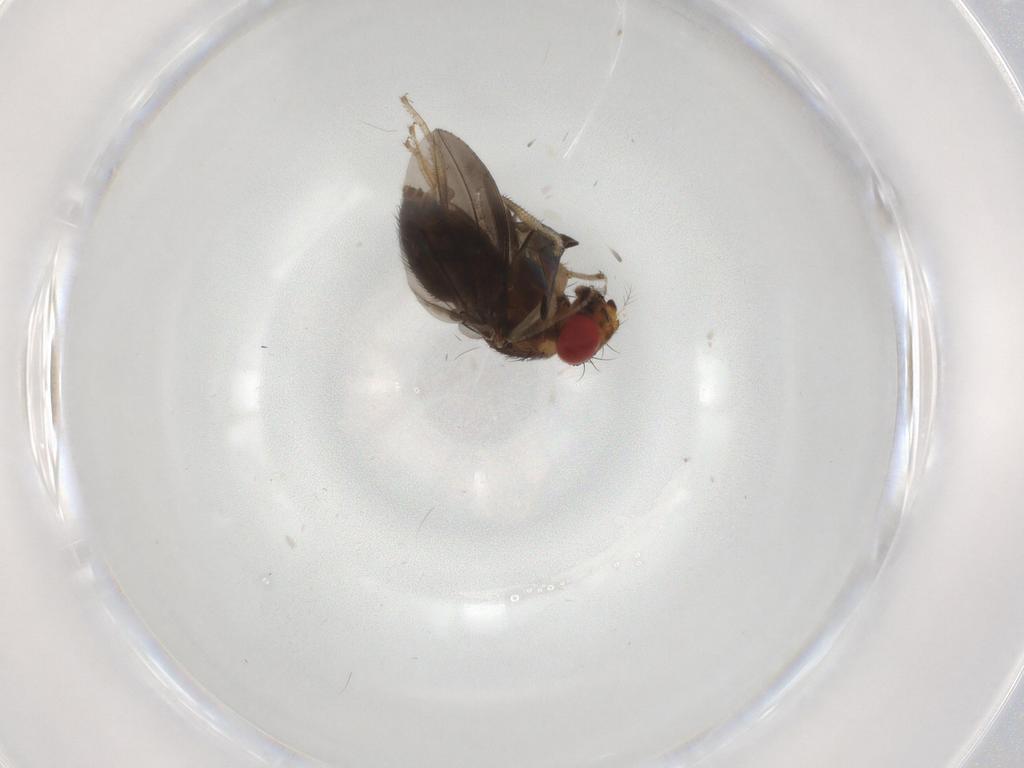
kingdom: Animalia
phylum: Arthropoda
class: Insecta
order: Diptera
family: Drosophilidae
